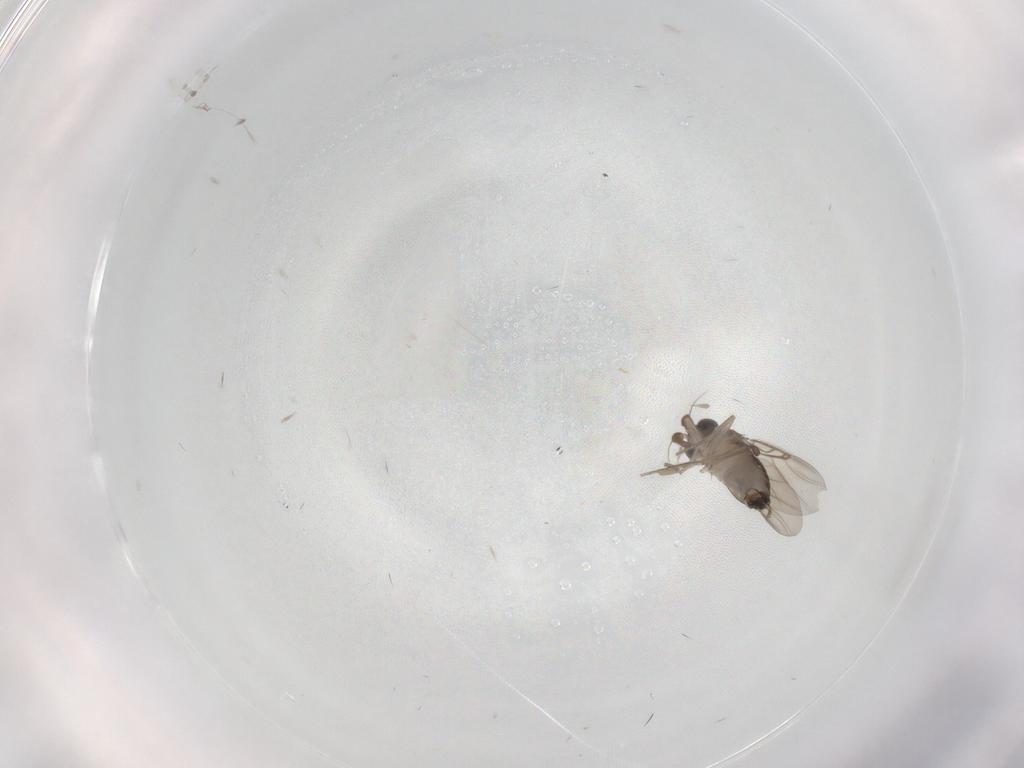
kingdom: Animalia
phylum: Arthropoda
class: Insecta
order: Diptera
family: Phoridae
